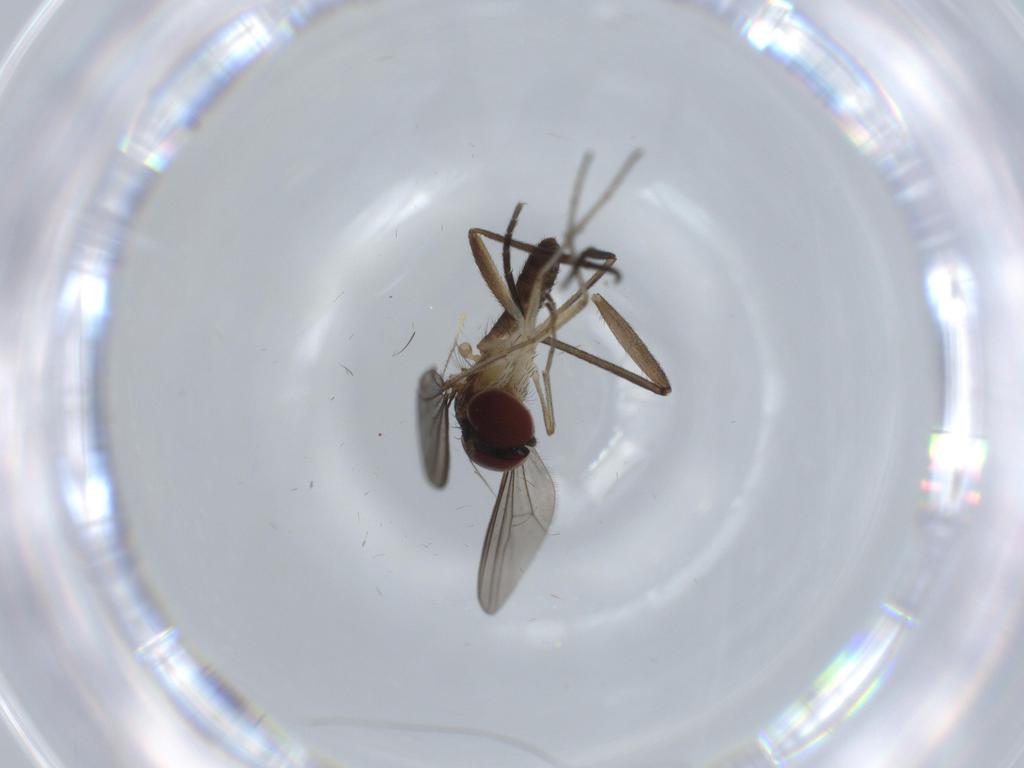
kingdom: Animalia
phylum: Arthropoda
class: Insecta
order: Diptera
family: Dolichopodidae
